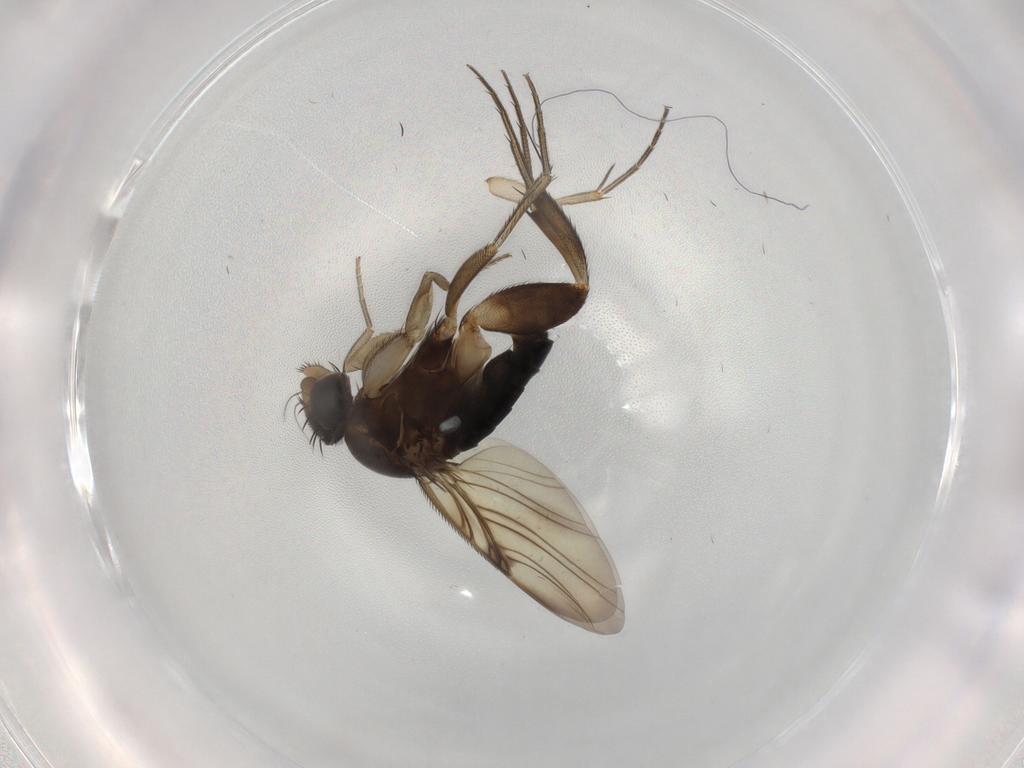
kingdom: Animalia
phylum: Arthropoda
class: Insecta
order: Diptera
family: Phoridae
